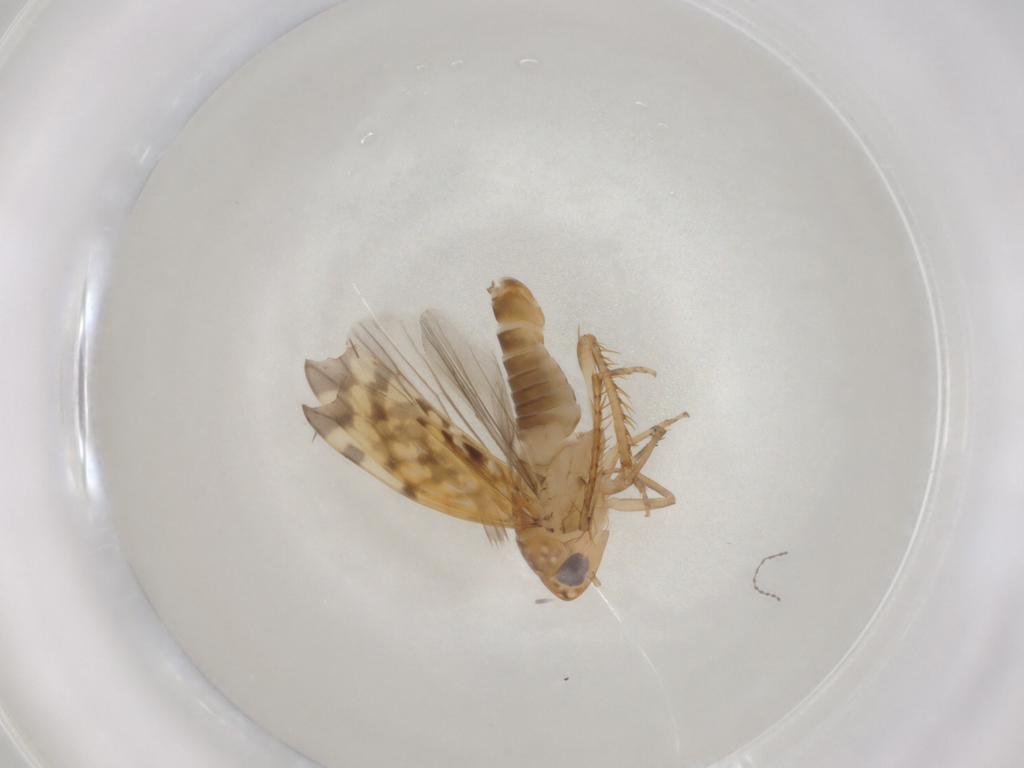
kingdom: Animalia
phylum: Arthropoda
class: Insecta
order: Hemiptera
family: Cicadellidae
